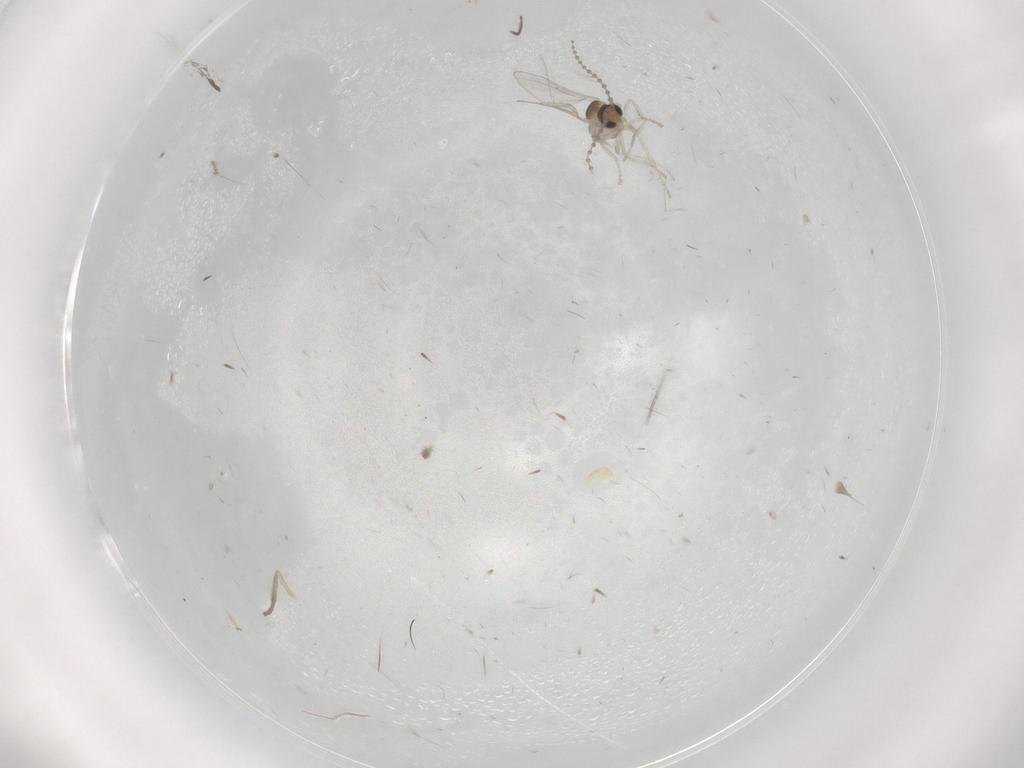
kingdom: Animalia
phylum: Arthropoda
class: Insecta
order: Diptera
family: Cecidomyiidae
